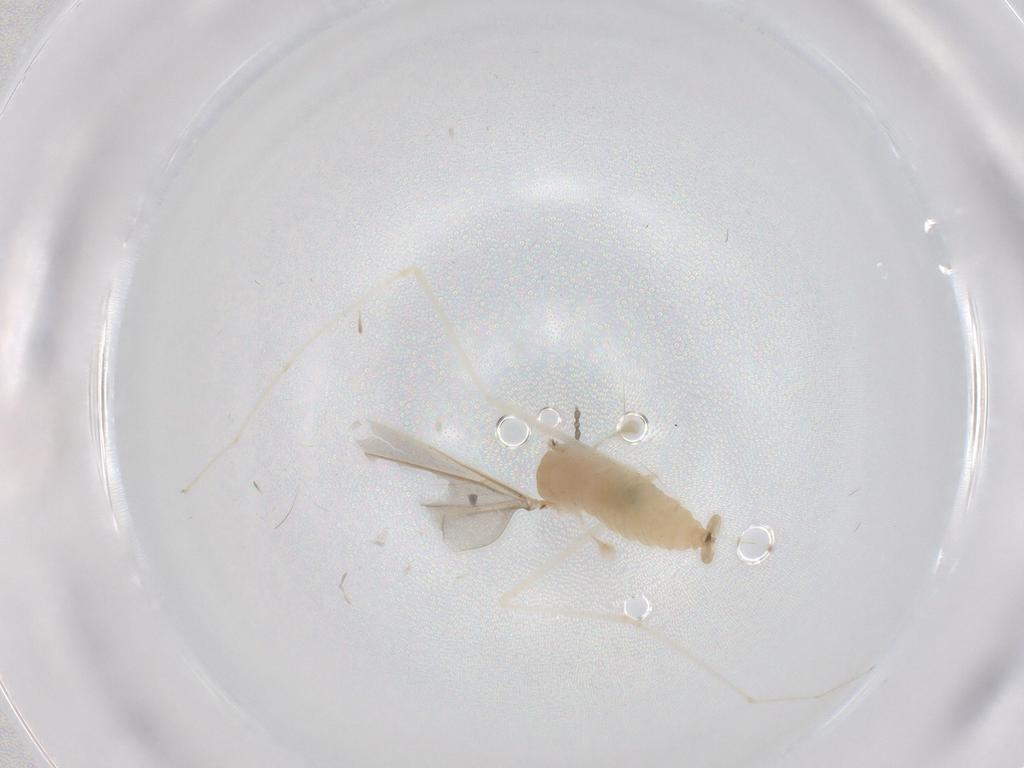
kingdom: Animalia
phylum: Arthropoda
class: Insecta
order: Diptera
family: Cecidomyiidae
